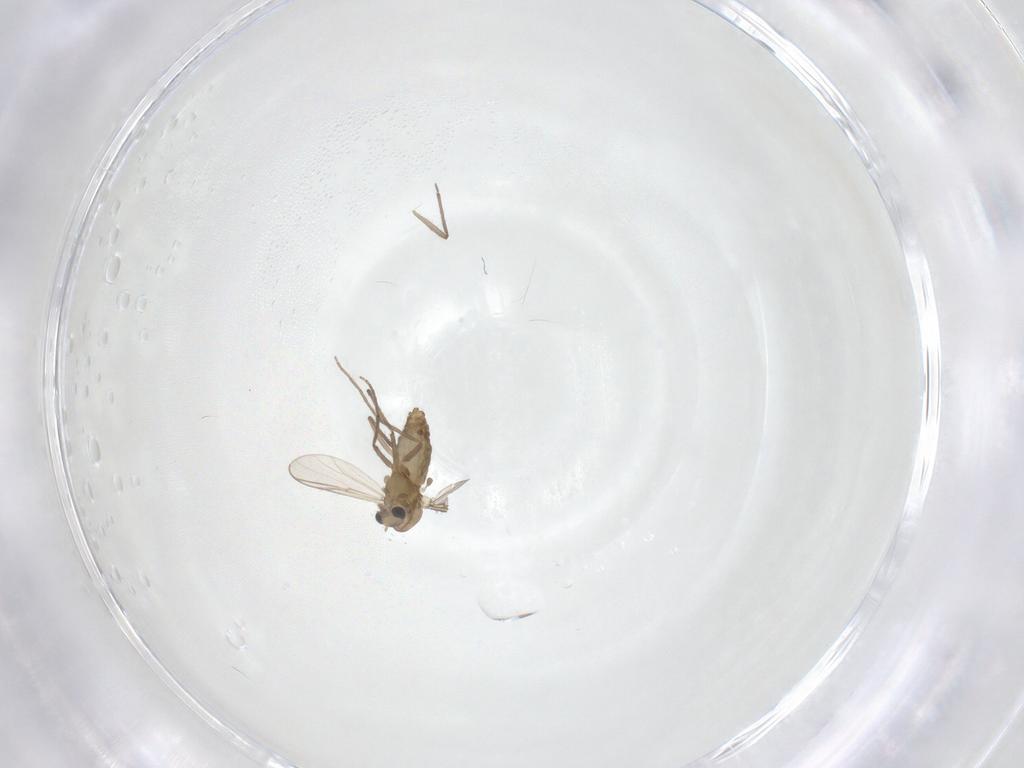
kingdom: Animalia
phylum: Arthropoda
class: Insecta
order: Diptera
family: Chironomidae
